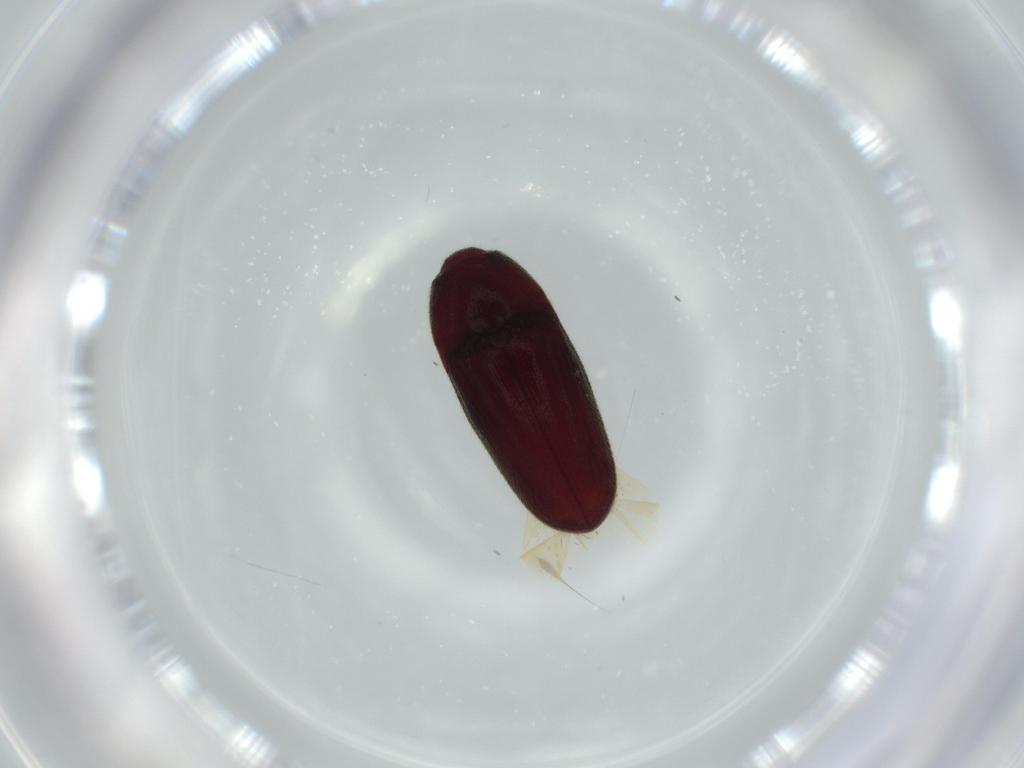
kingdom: Animalia
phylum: Arthropoda
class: Insecta
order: Coleoptera
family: Throscidae
